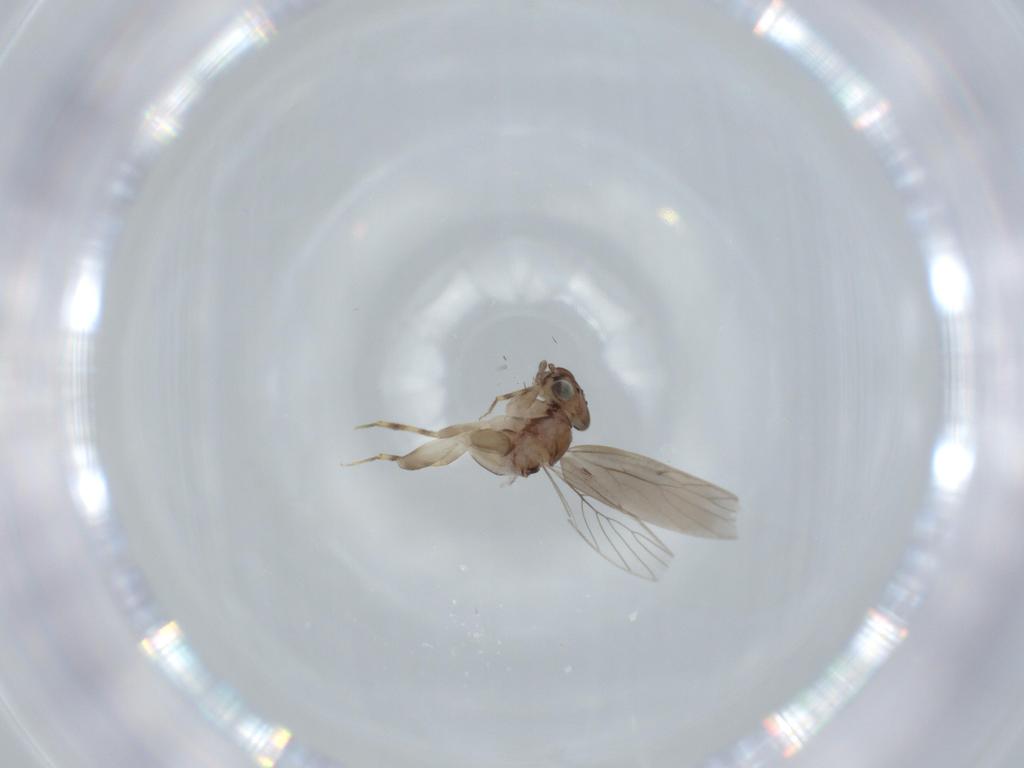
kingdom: Animalia
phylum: Arthropoda
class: Insecta
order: Psocodea
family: Lepidopsocidae
